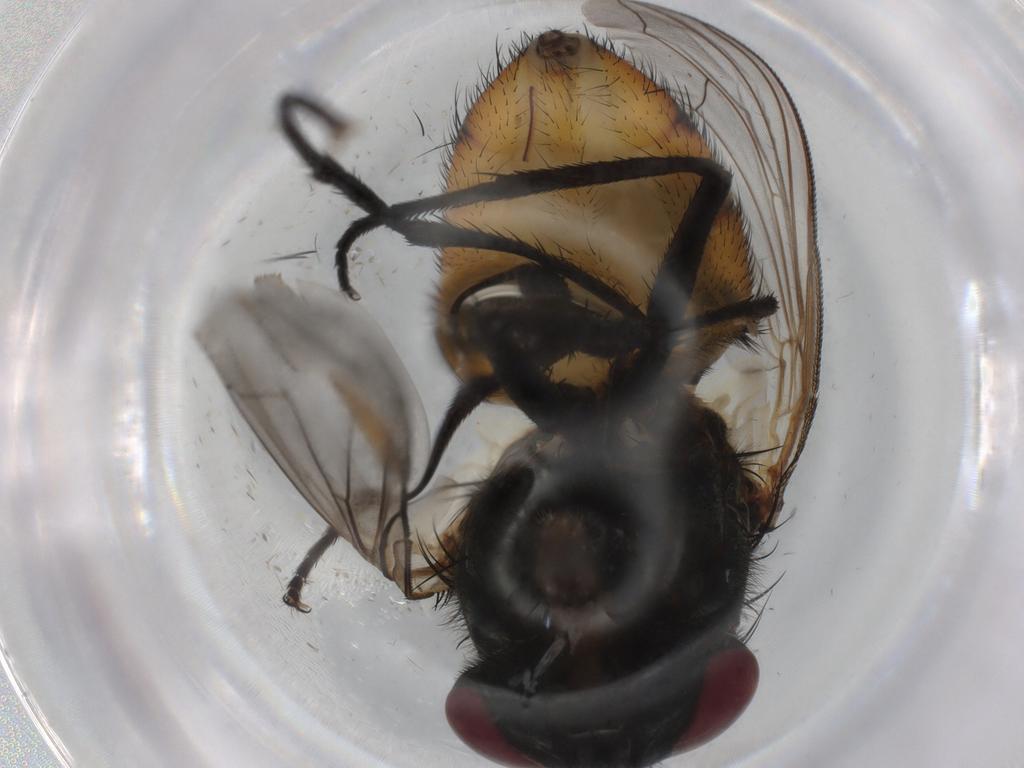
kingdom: Animalia
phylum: Arthropoda
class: Insecta
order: Diptera
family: Muscidae
